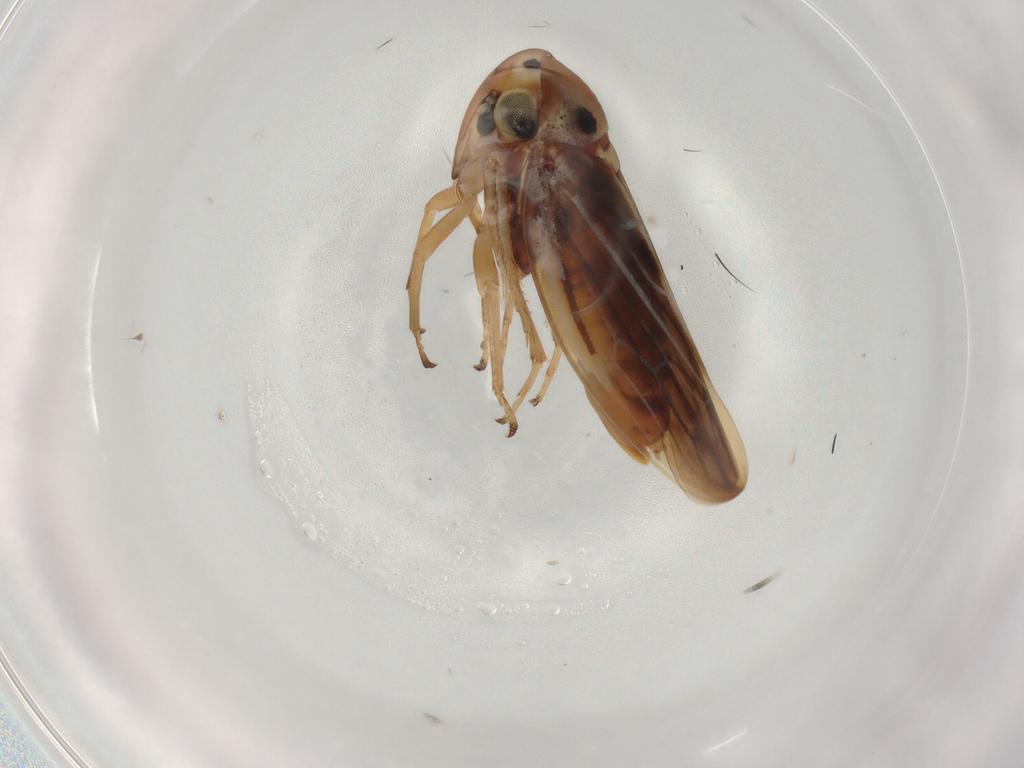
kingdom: Animalia
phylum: Arthropoda
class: Insecta
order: Hemiptera
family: Cicadellidae
